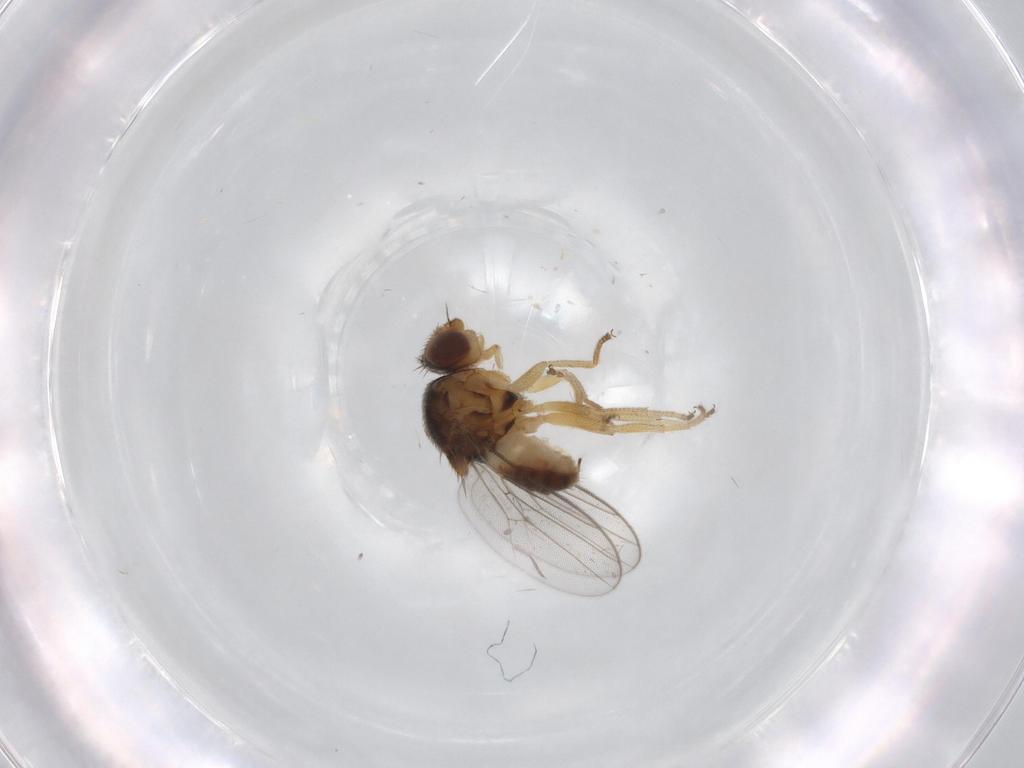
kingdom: Animalia
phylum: Arthropoda
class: Insecta
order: Diptera
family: Chloropidae
